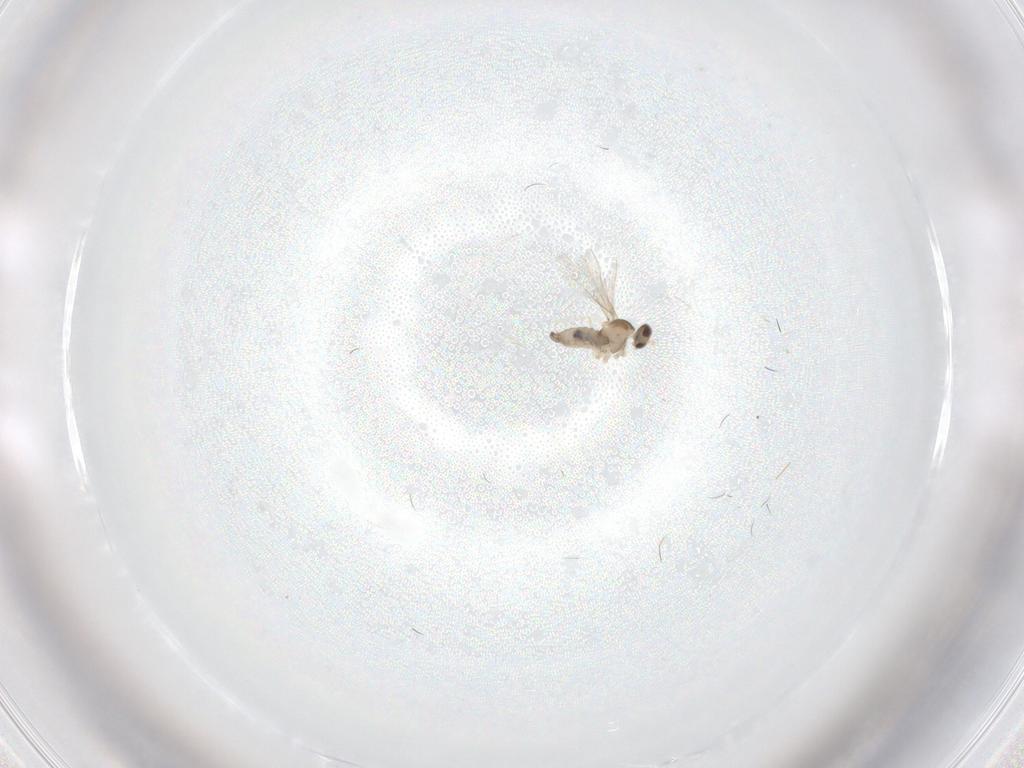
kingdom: Animalia
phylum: Arthropoda
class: Insecta
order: Diptera
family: Cecidomyiidae
